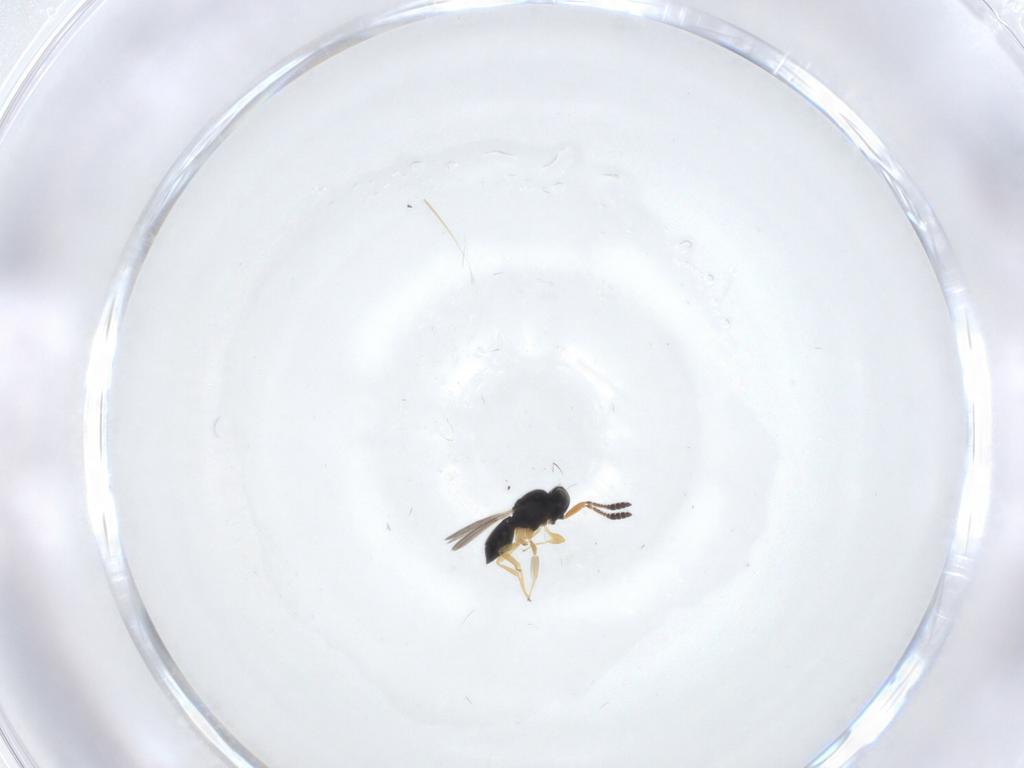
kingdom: Animalia
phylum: Arthropoda
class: Insecta
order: Hymenoptera
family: Scelionidae
